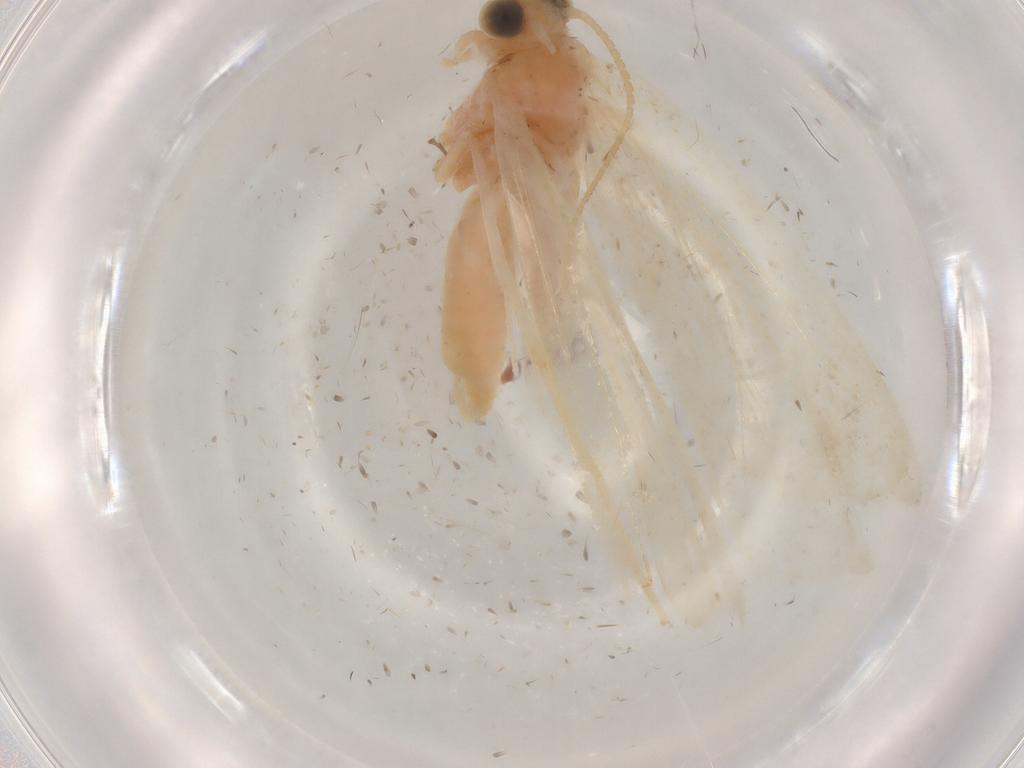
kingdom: Animalia
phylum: Arthropoda
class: Insecta
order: Lepidoptera
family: Crambidae
